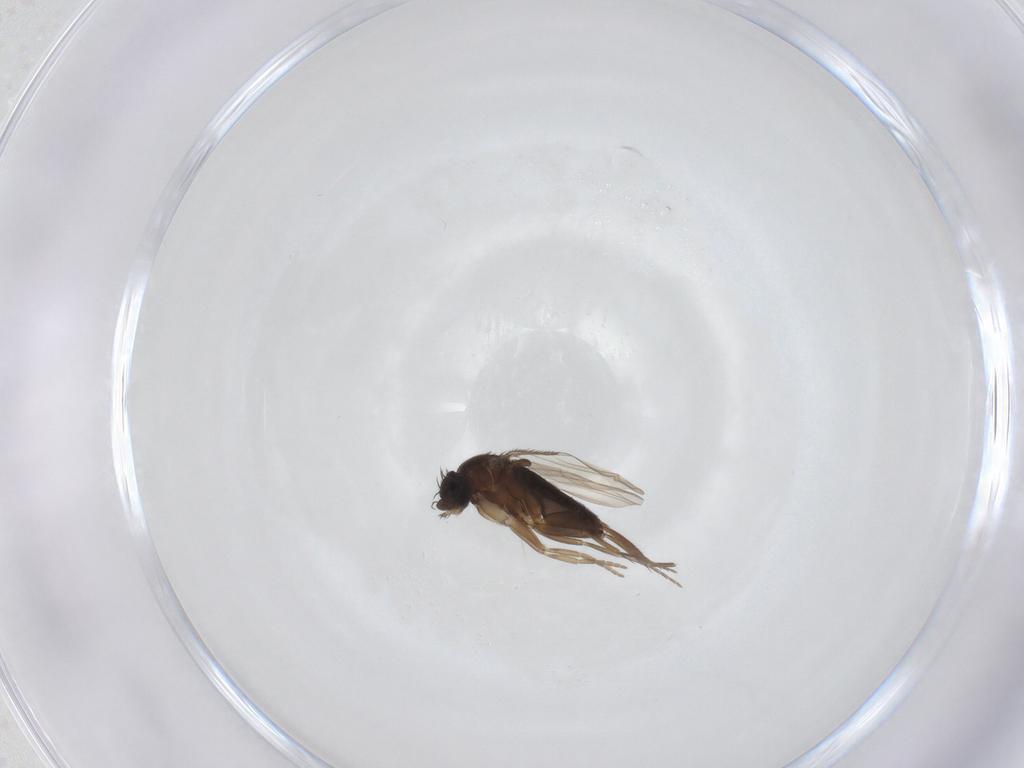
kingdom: Animalia
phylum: Arthropoda
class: Insecta
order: Diptera
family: Phoridae
